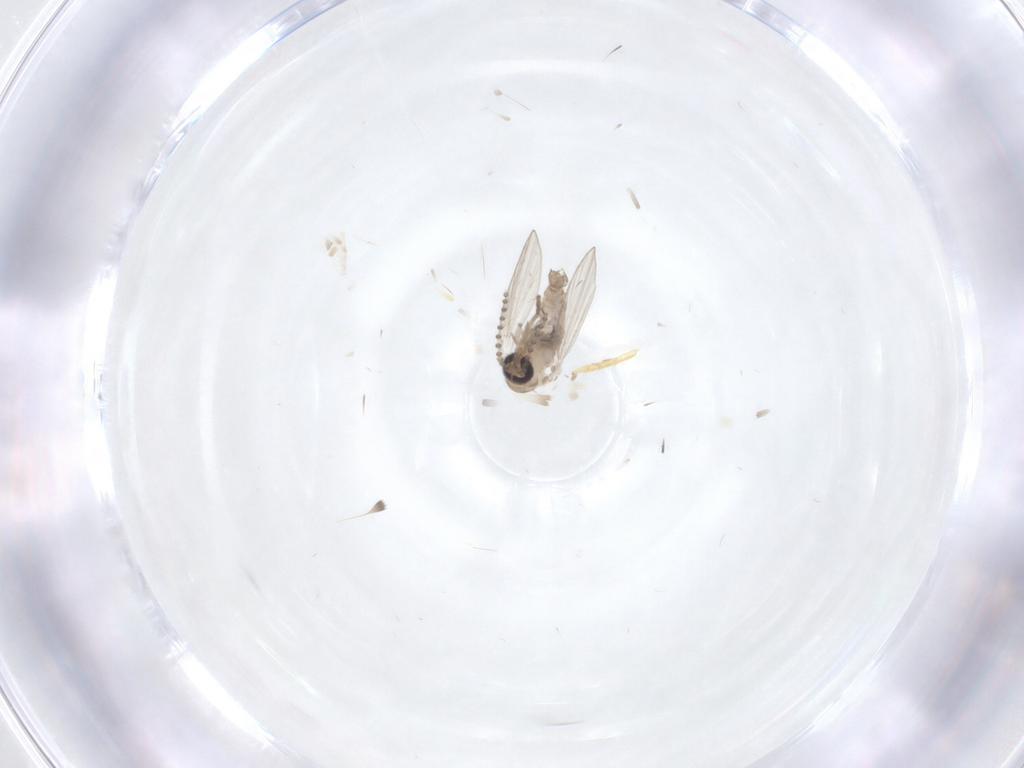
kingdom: Animalia
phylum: Arthropoda
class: Insecta
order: Diptera
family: Psychodidae
